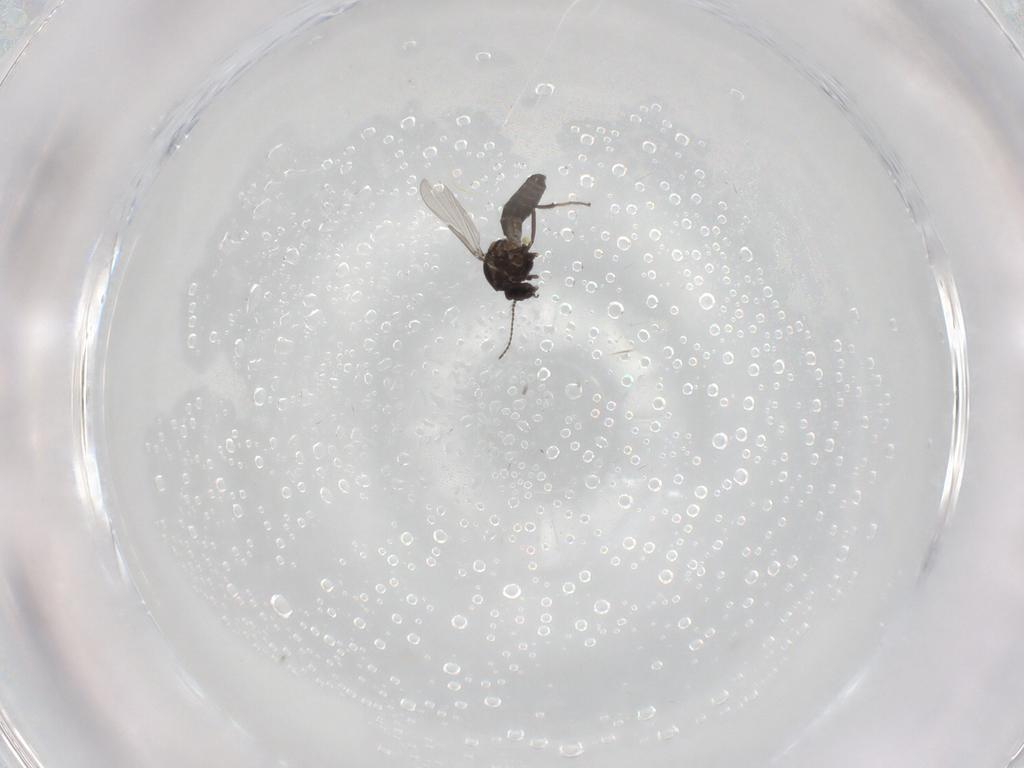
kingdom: Animalia
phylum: Arthropoda
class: Insecta
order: Diptera
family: Ceratopogonidae
